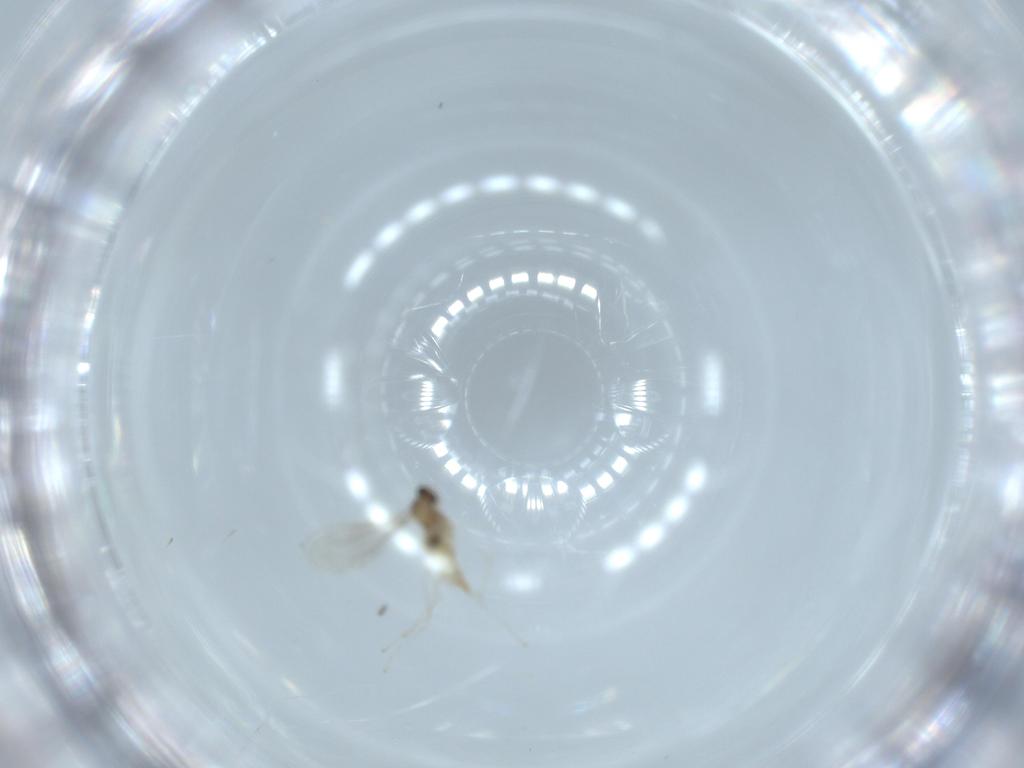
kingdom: Animalia
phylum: Arthropoda
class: Insecta
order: Diptera
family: Cecidomyiidae
